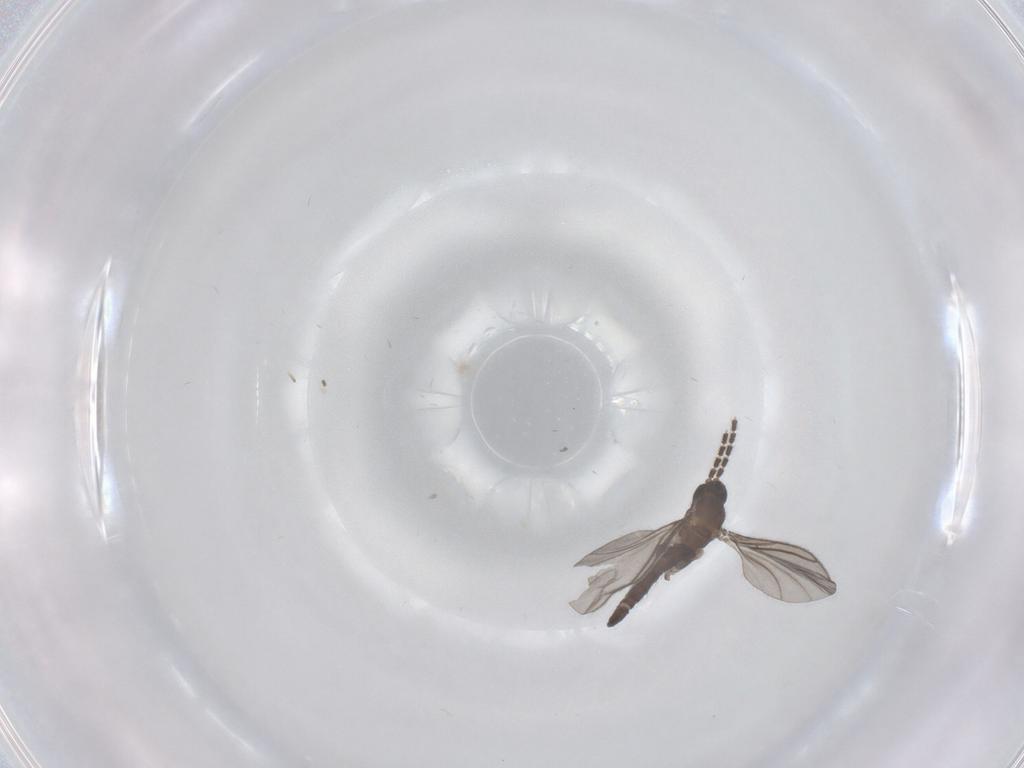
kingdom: Animalia
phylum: Arthropoda
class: Insecta
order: Diptera
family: Sciaridae
